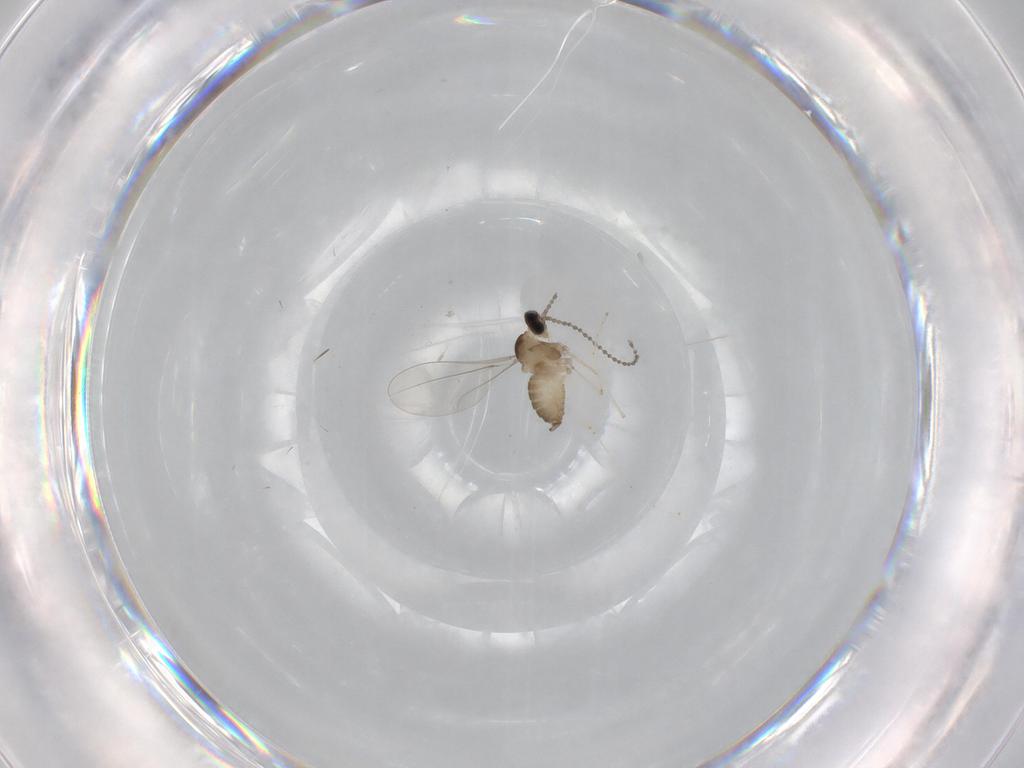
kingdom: Animalia
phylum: Arthropoda
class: Insecta
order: Diptera
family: Cecidomyiidae
